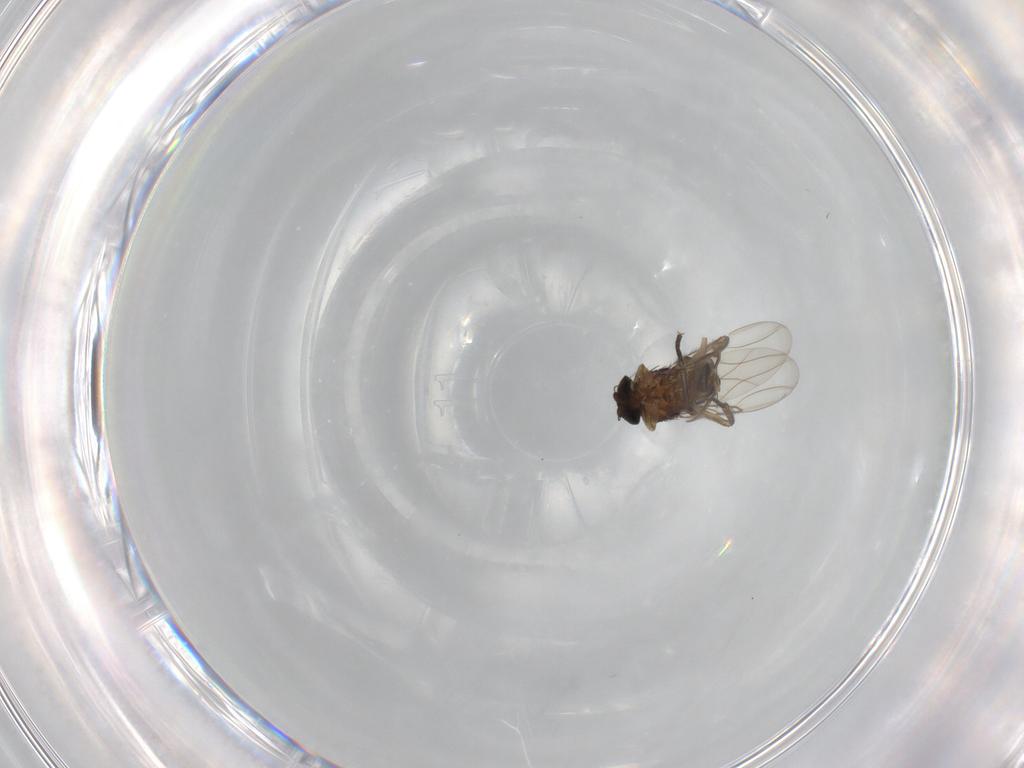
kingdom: Animalia
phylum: Arthropoda
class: Insecta
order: Diptera
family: Phoridae
